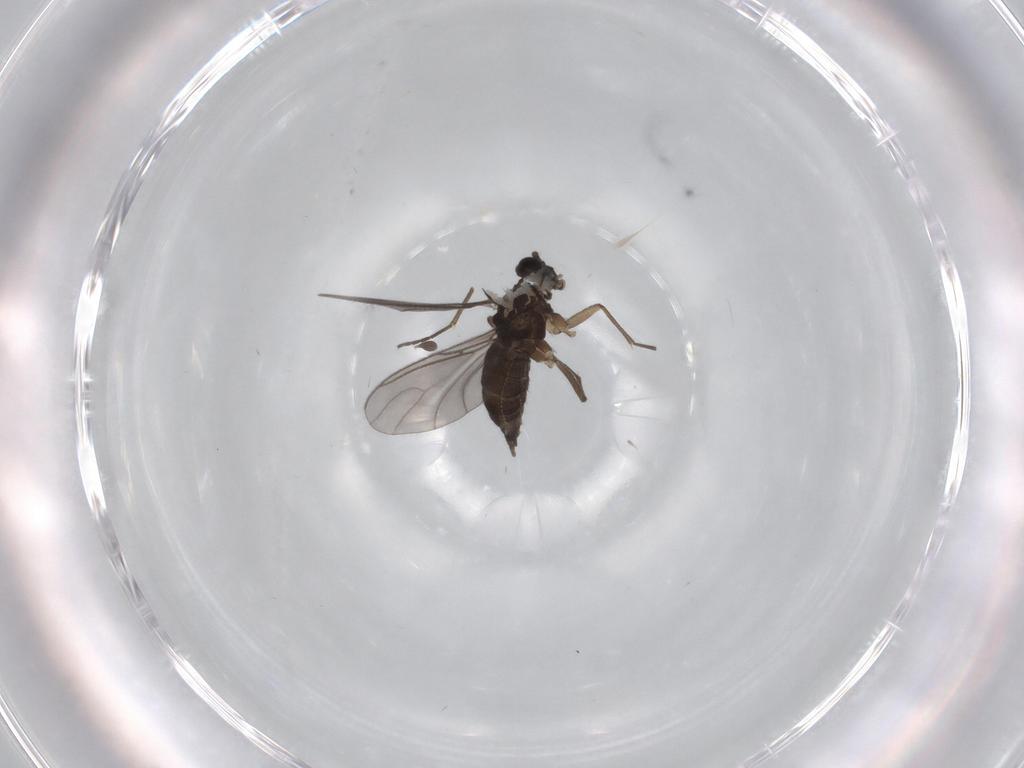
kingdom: Animalia
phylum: Arthropoda
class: Insecta
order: Diptera
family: Sciaridae
